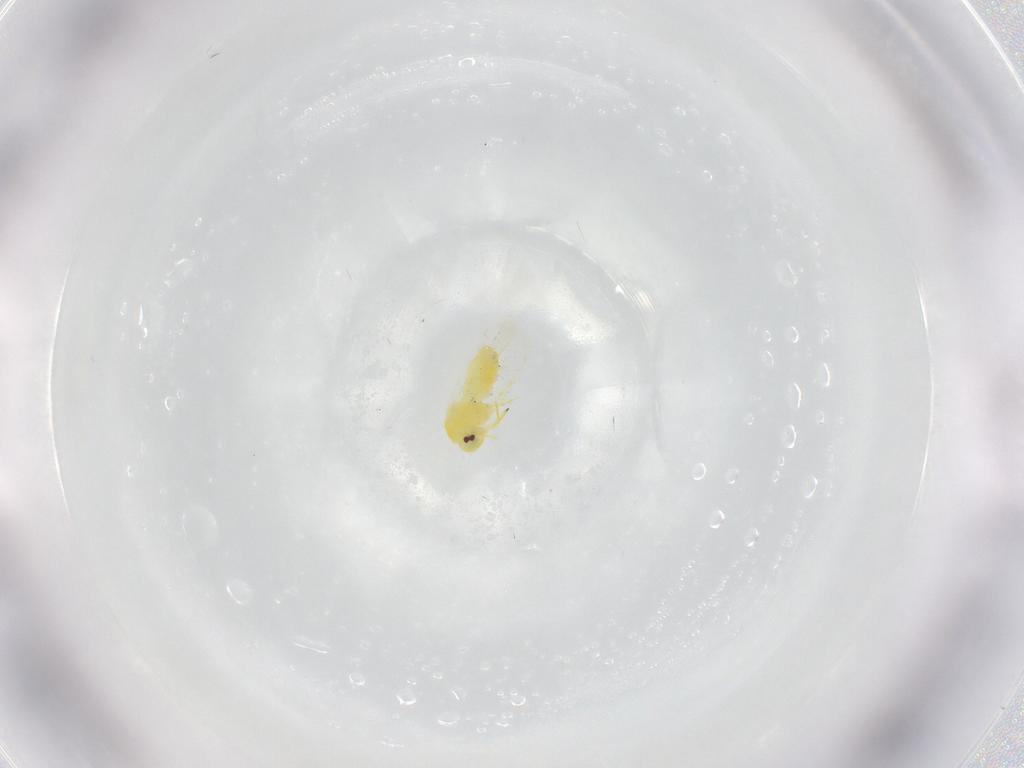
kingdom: Animalia
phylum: Arthropoda
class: Insecta
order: Hemiptera
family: Aleyrodidae
